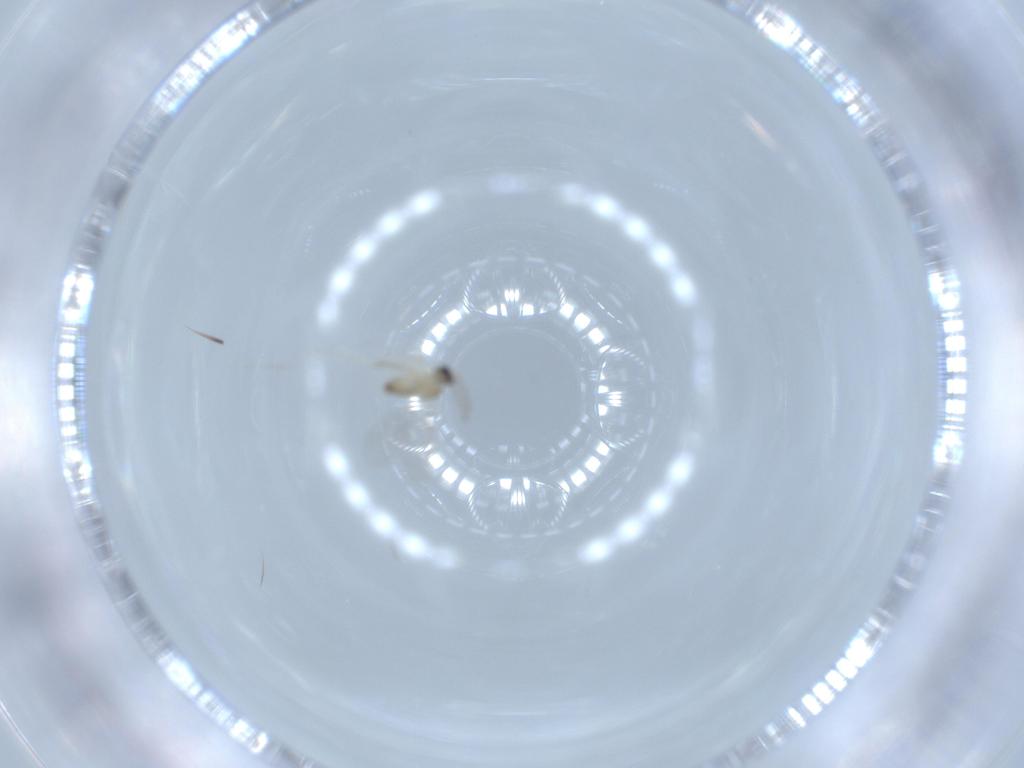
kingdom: Animalia
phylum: Arthropoda
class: Insecta
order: Diptera
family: Cecidomyiidae
